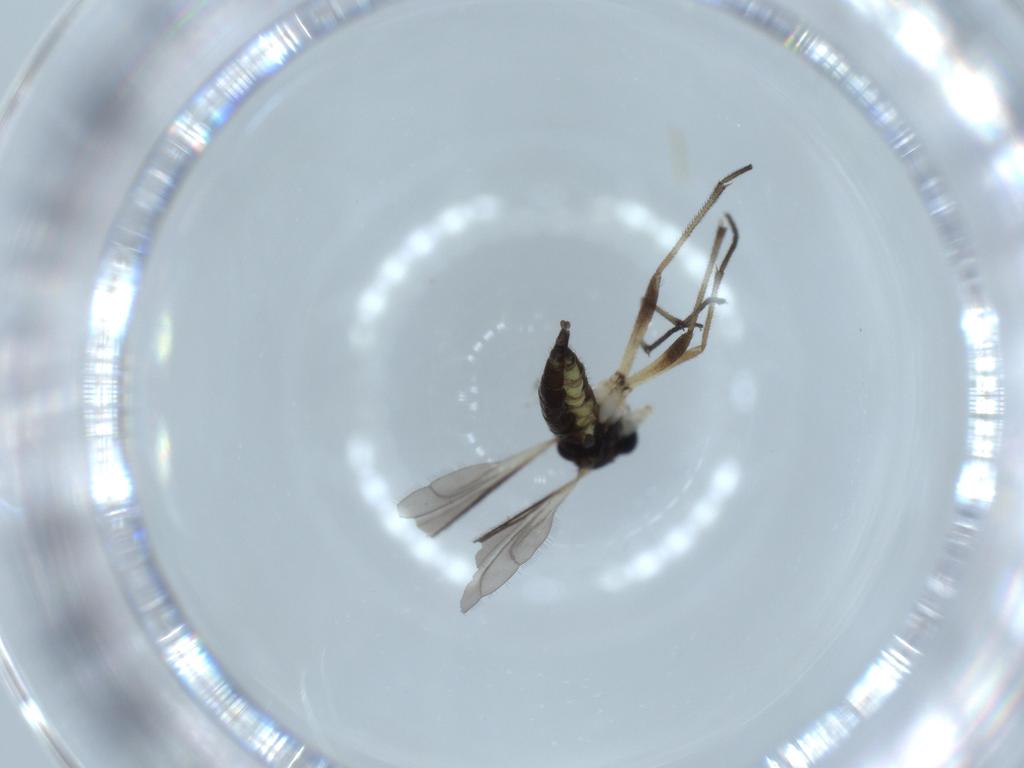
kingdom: Animalia
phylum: Arthropoda
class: Insecta
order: Diptera
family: Sciaridae
